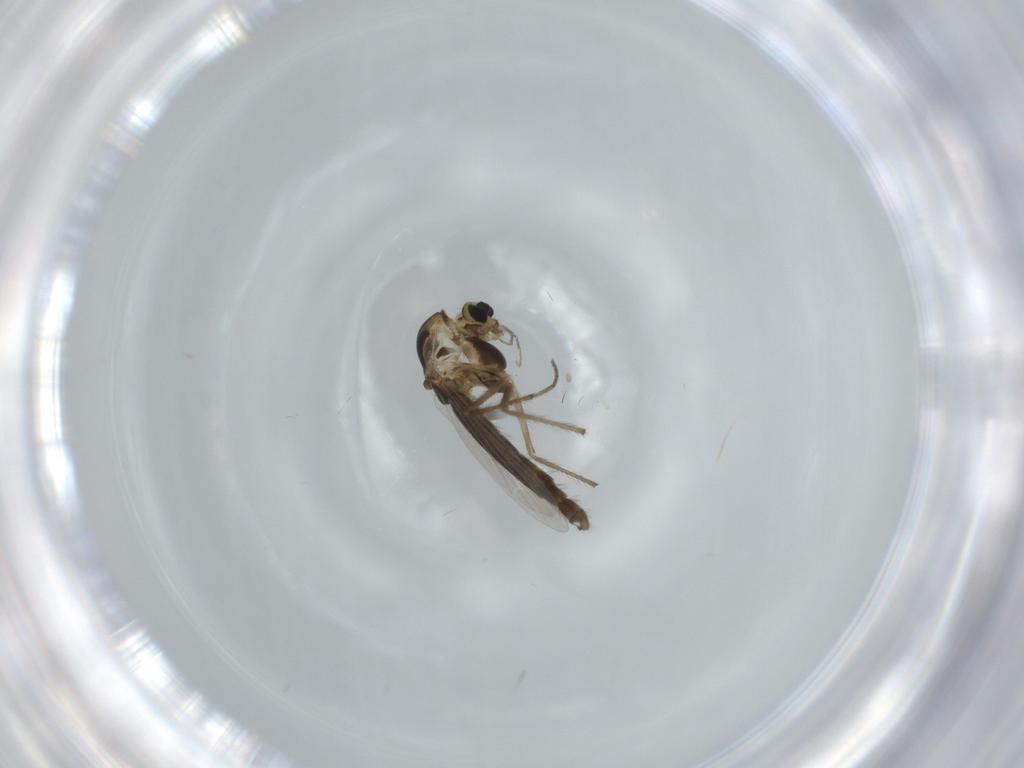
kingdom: Animalia
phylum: Arthropoda
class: Insecta
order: Diptera
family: Chironomidae
